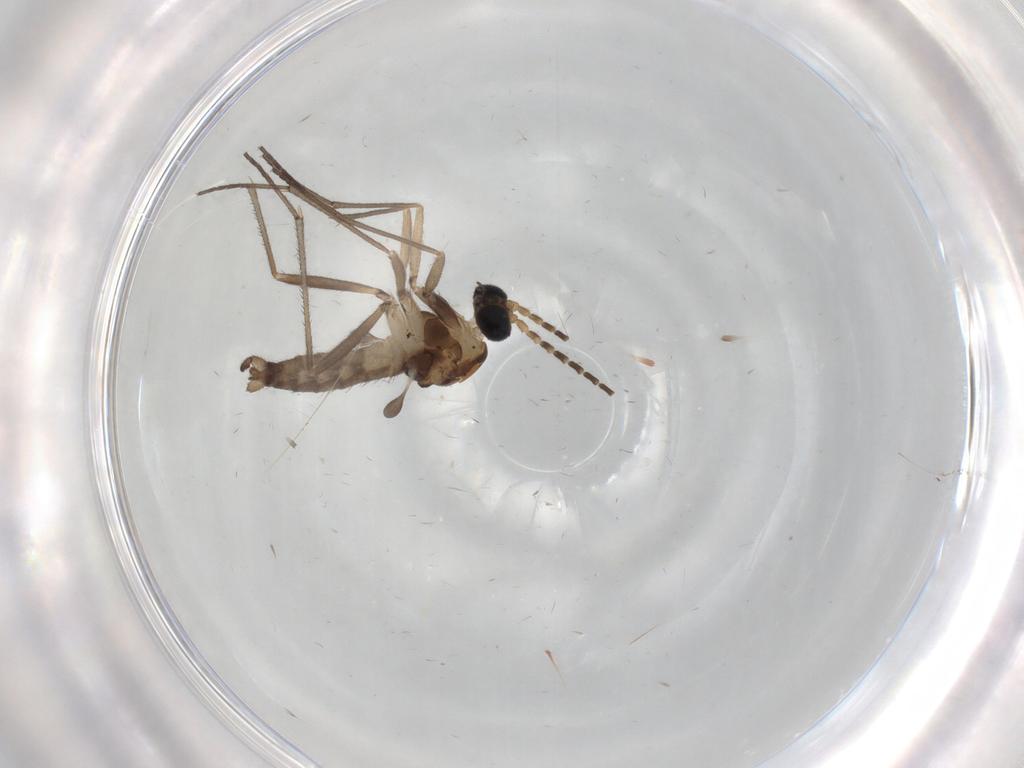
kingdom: Animalia
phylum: Arthropoda
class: Insecta
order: Diptera
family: Sciaridae
